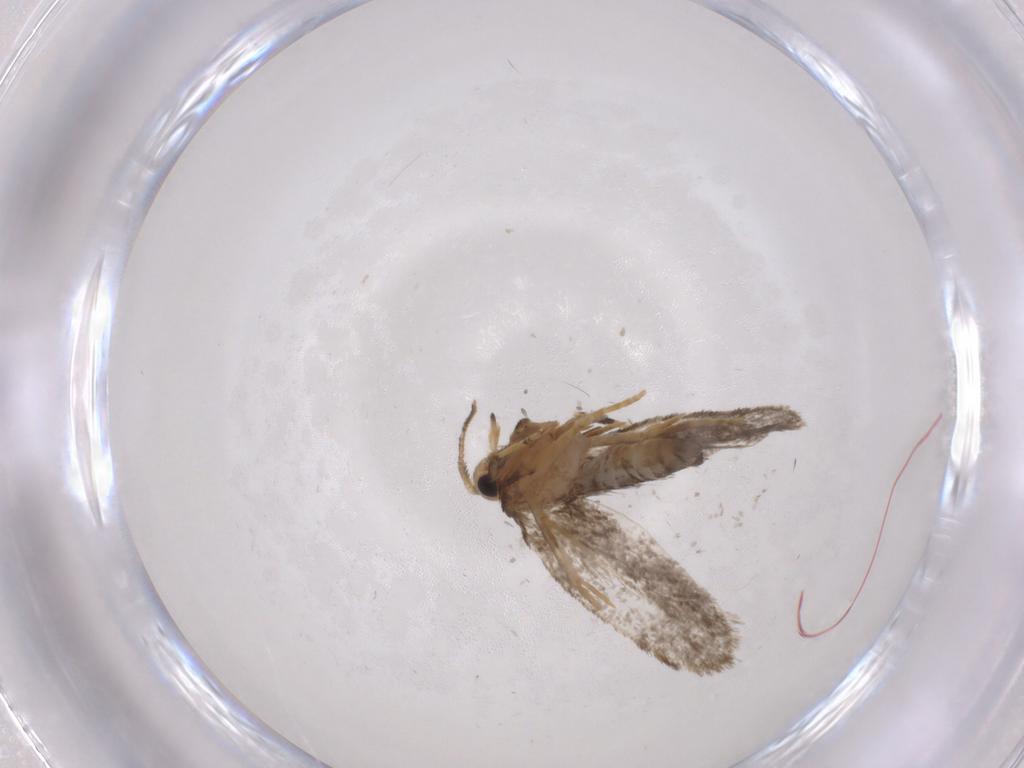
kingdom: Animalia
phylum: Arthropoda
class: Insecta
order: Lepidoptera
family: Psychidae
